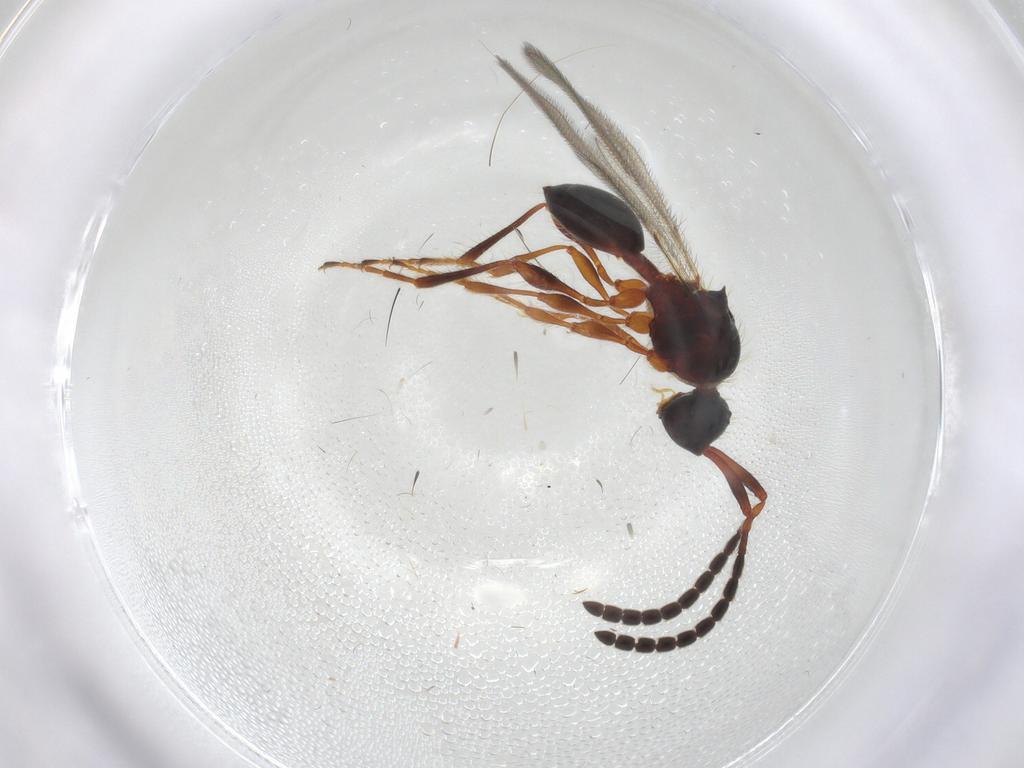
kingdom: Animalia
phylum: Arthropoda
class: Insecta
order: Hymenoptera
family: Diapriidae
